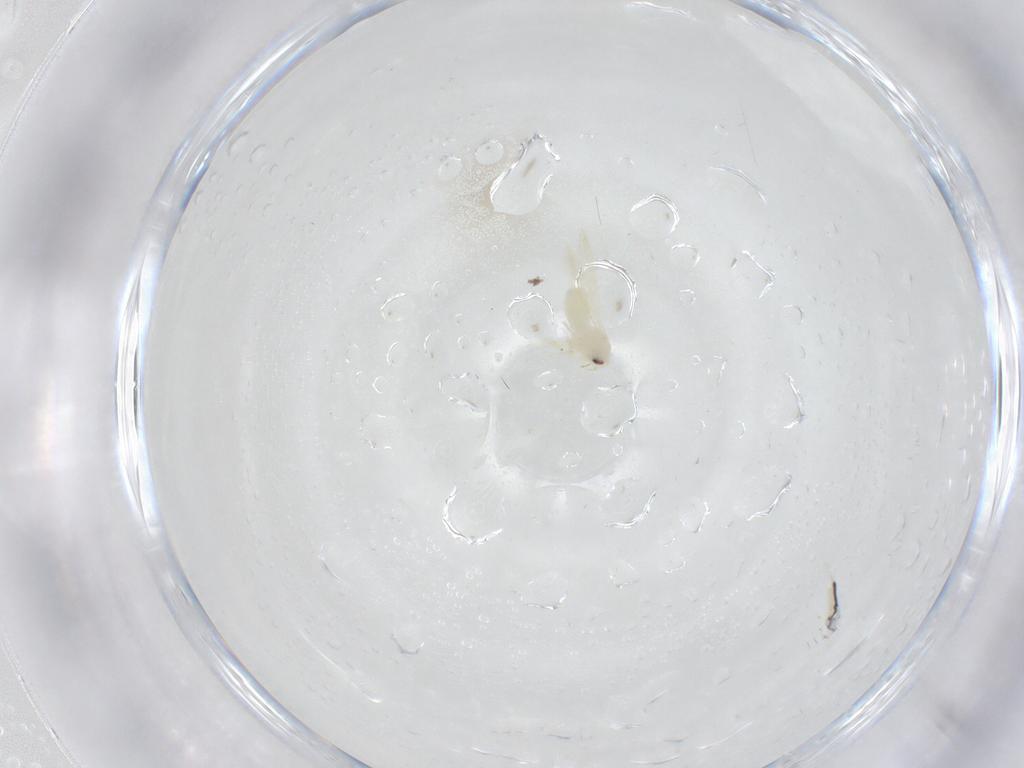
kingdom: Animalia
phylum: Arthropoda
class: Insecta
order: Hemiptera
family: Aleyrodidae
